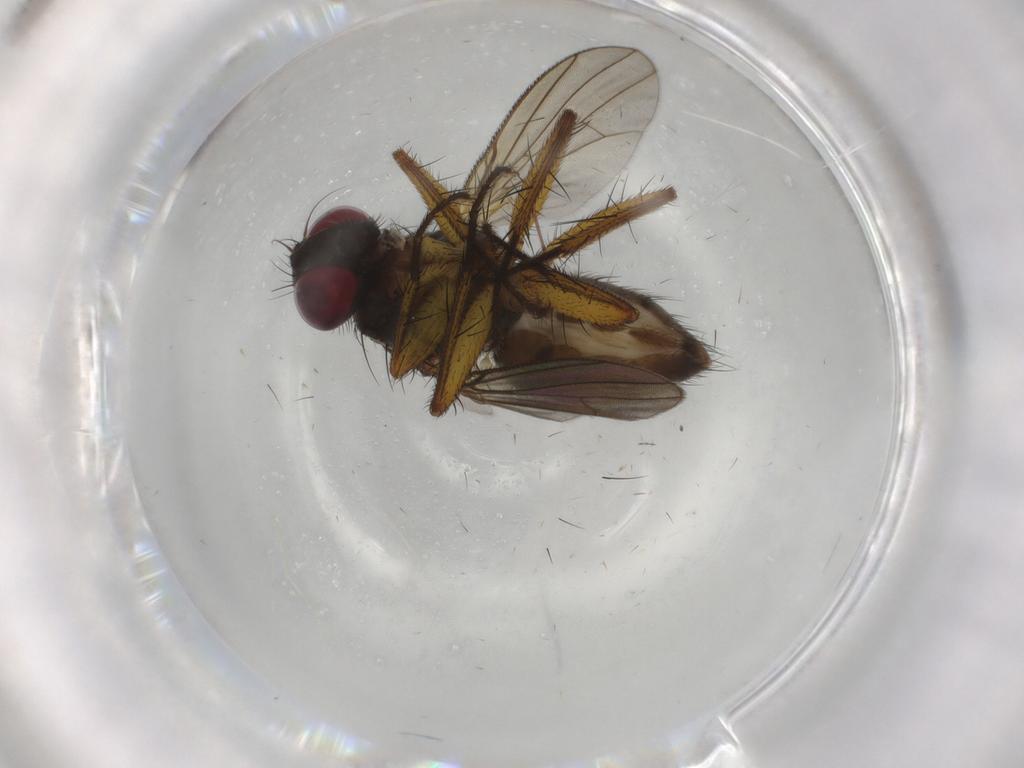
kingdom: Animalia
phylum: Arthropoda
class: Insecta
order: Diptera
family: Muscidae
